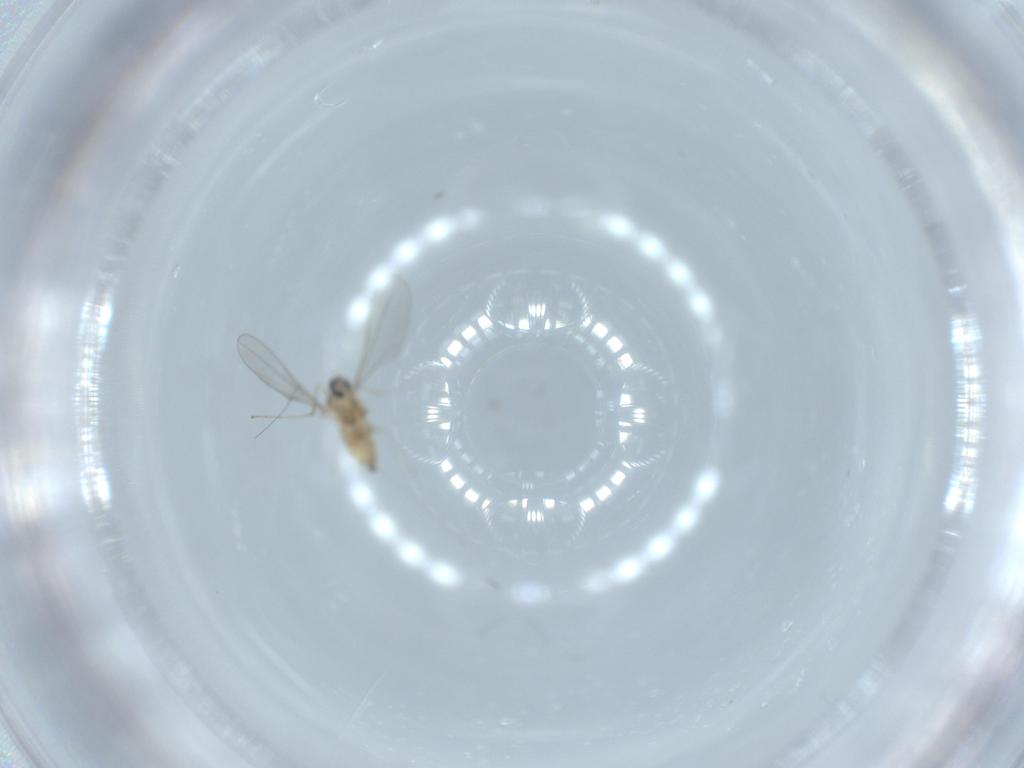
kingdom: Animalia
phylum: Arthropoda
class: Insecta
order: Diptera
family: Cecidomyiidae
